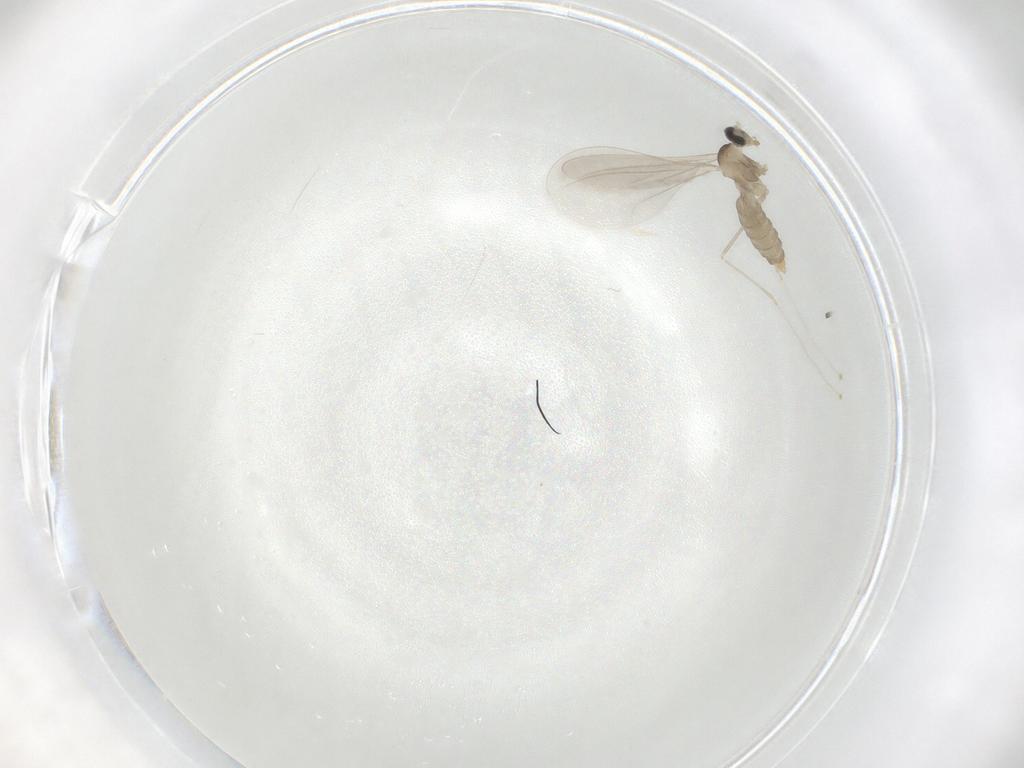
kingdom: Animalia
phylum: Arthropoda
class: Insecta
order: Diptera
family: Cecidomyiidae
